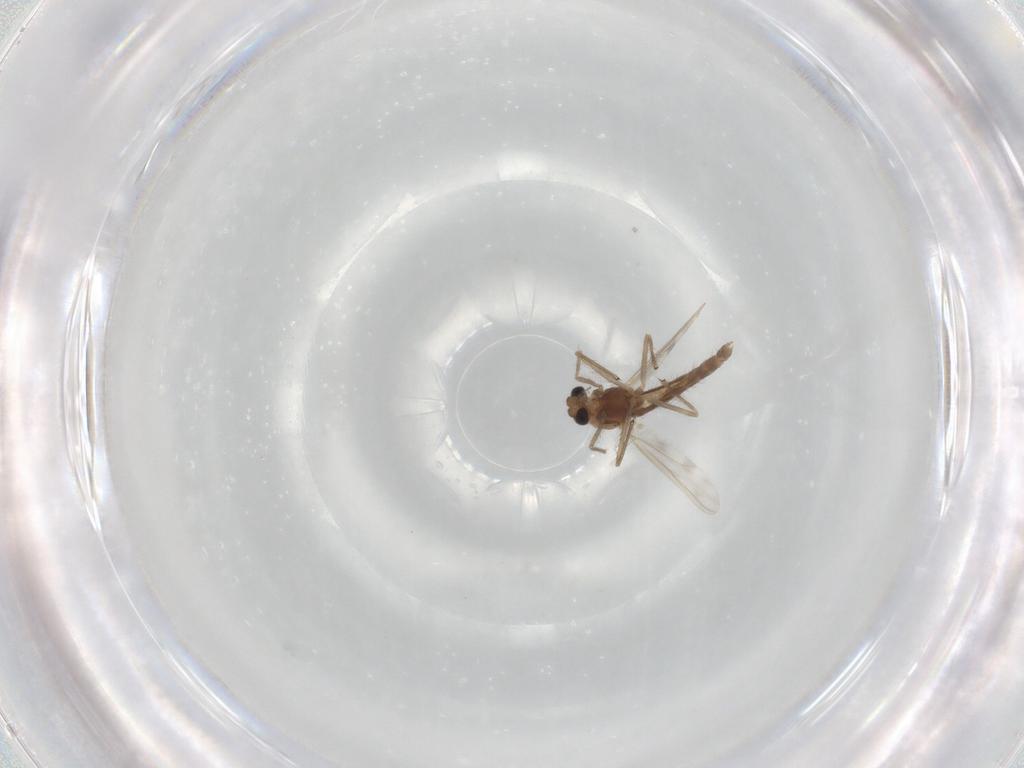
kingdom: Animalia
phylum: Arthropoda
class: Insecta
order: Diptera
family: Chironomidae
